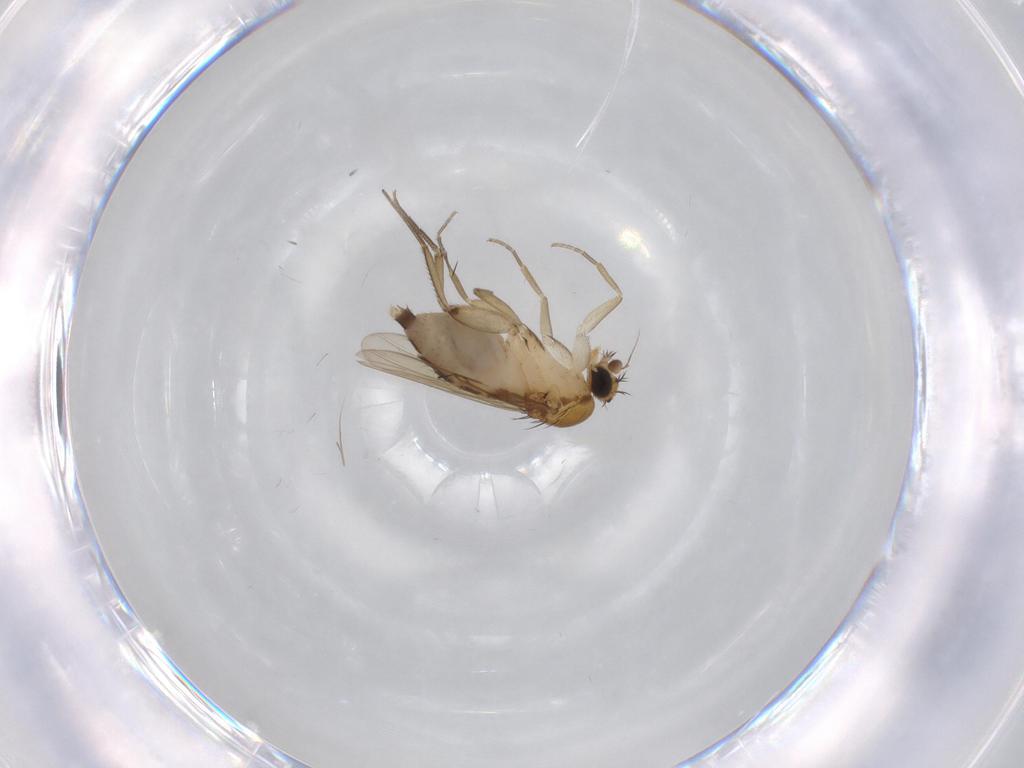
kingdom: Animalia
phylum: Arthropoda
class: Insecta
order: Diptera
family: Phoridae
